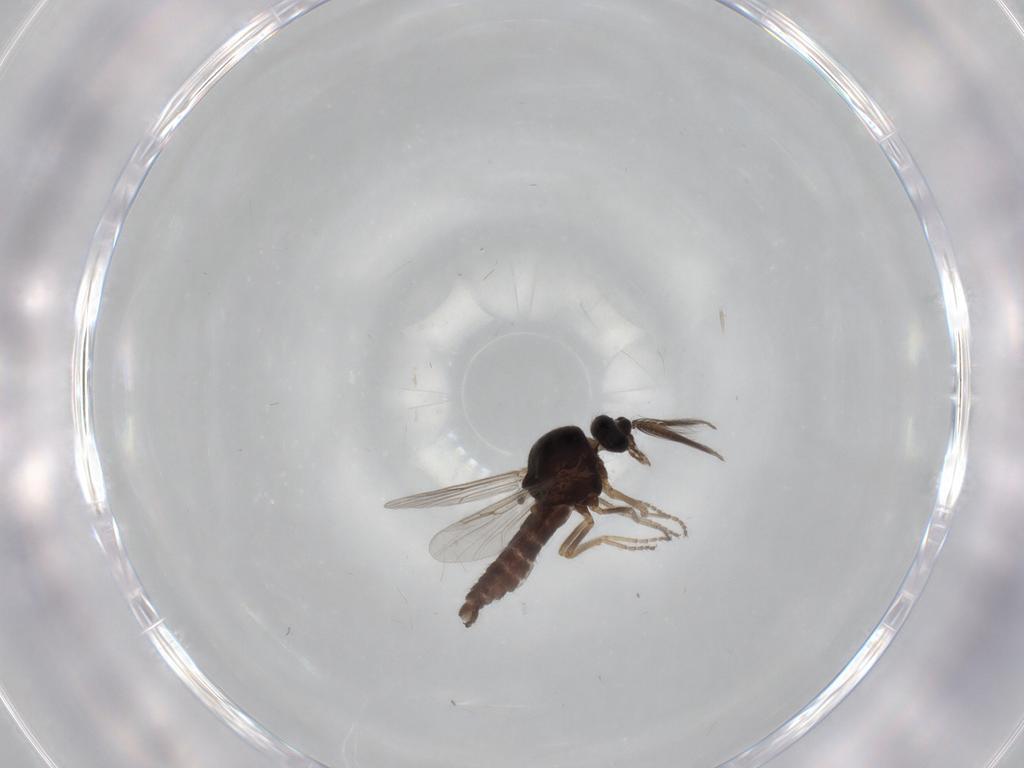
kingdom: Animalia
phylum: Arthropoda
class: Insecta
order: Diptera
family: Ceratopogonidae
